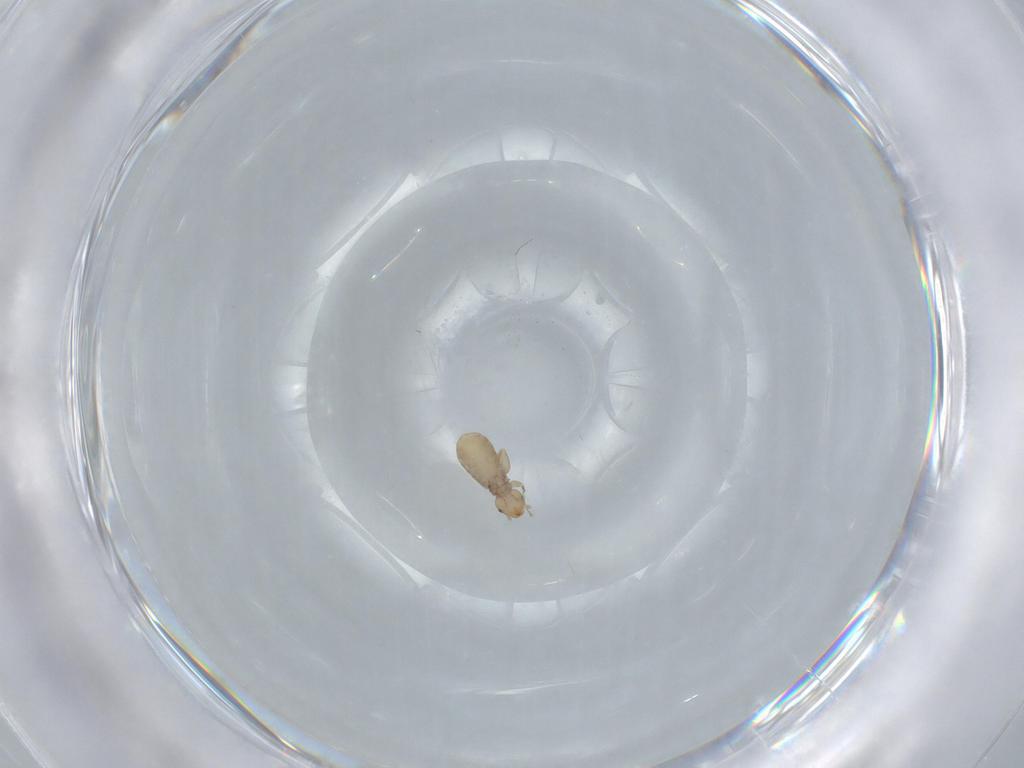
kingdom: Animalia
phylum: Arthropoda
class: Insecta
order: Psocodea
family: Liposcelididae
